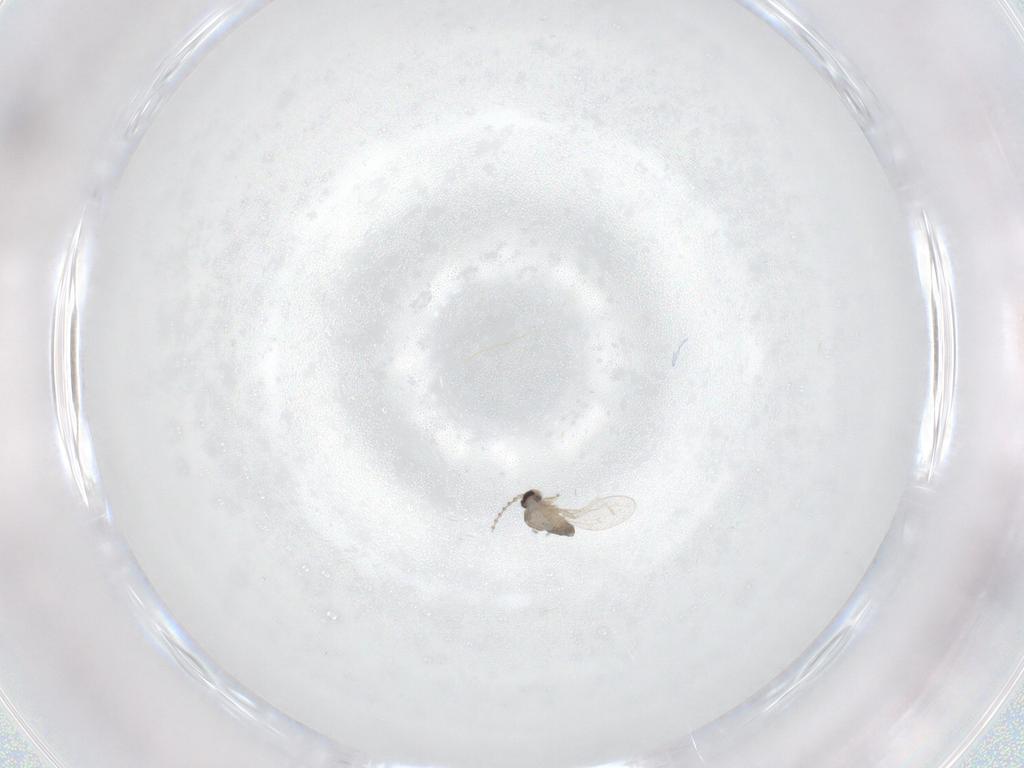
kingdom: Animalia
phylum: Arthropoda
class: Insecta
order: Diptera
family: Cecidomyiidae
